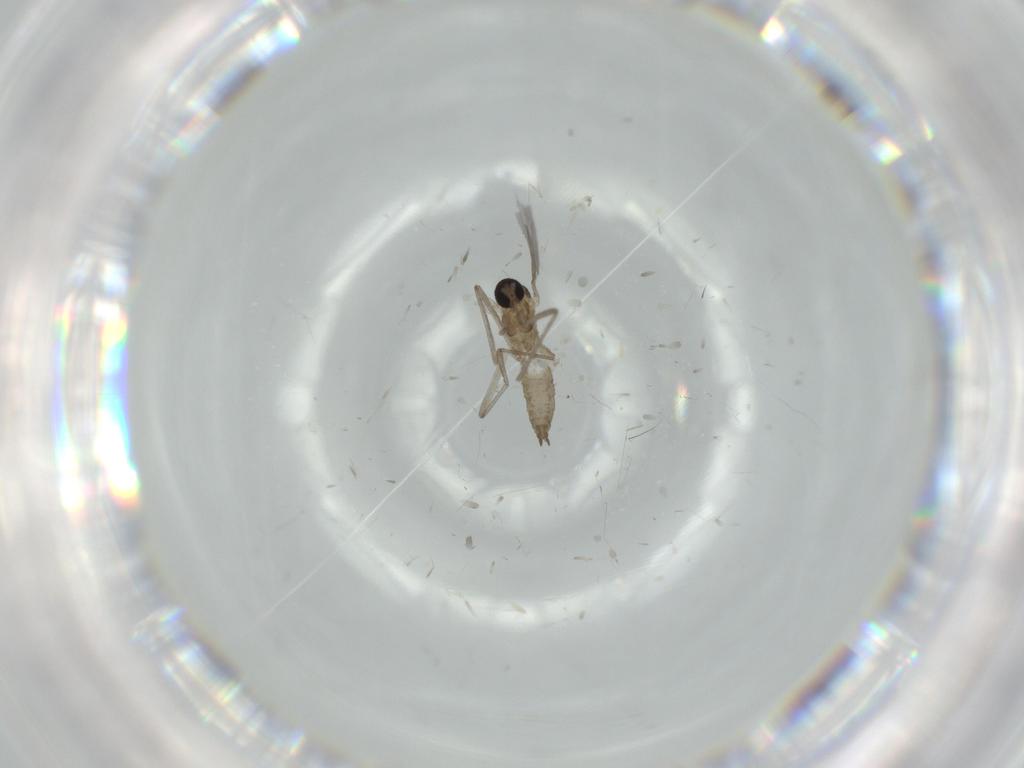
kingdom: Animalia
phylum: Arthropoda
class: Insecta
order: Diptera
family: Cecidomyiidae
